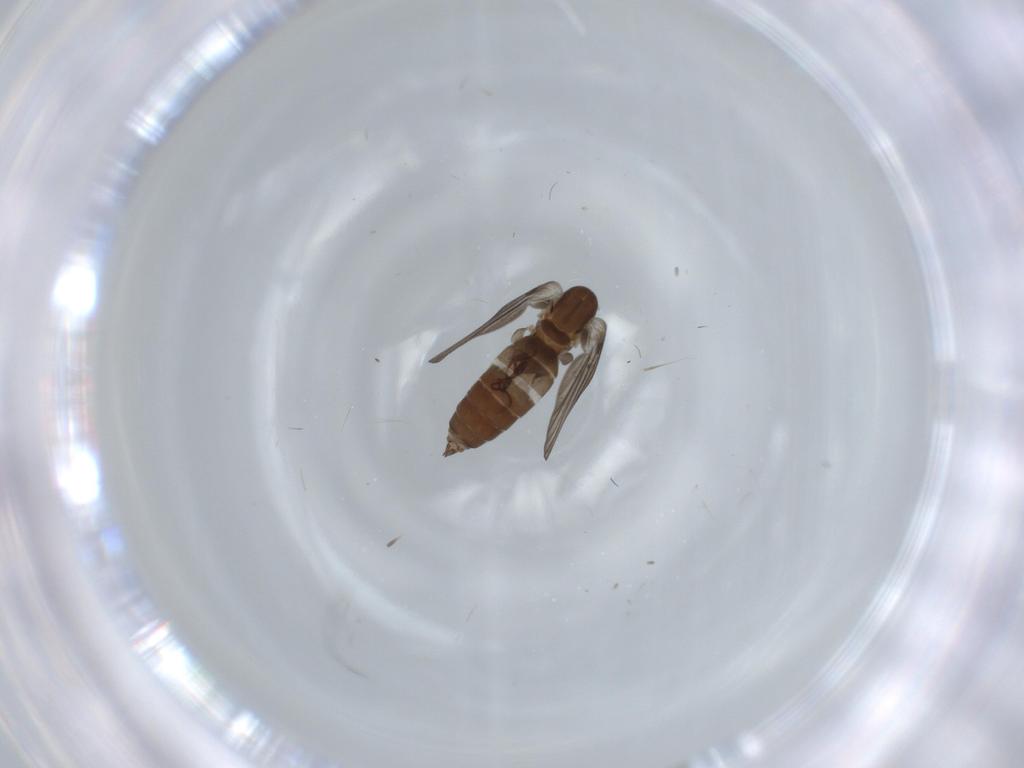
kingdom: Animalia
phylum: Arthropoda
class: Insecta
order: Diptera
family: Psychodidae
